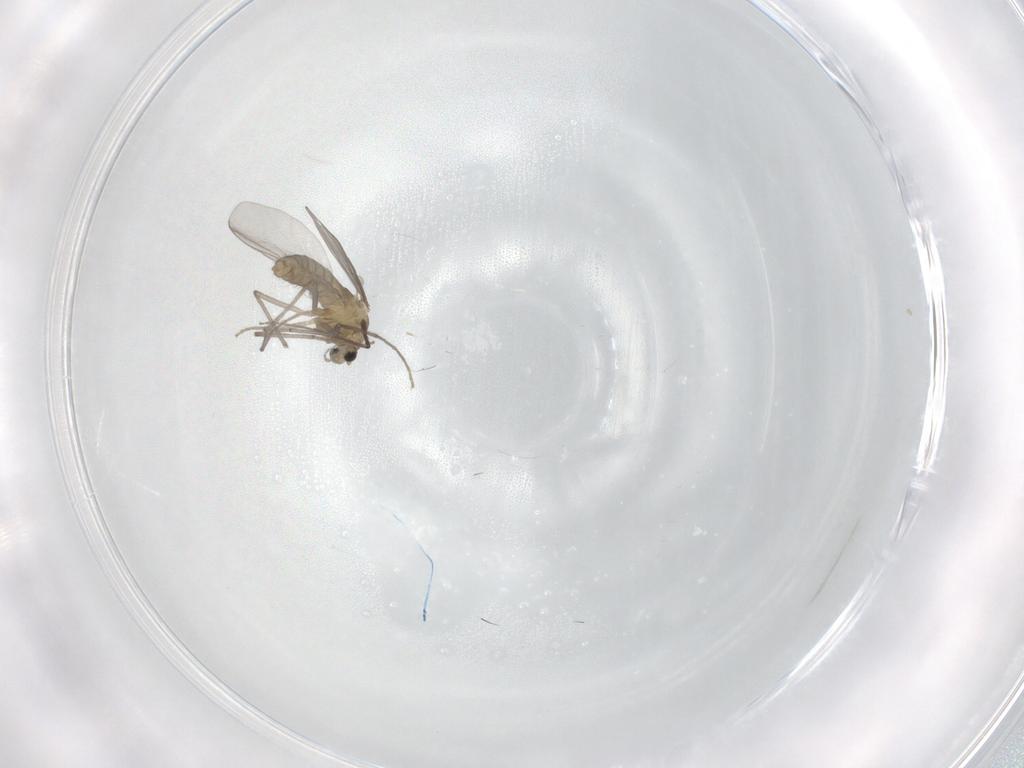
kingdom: Animalia
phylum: Arthropoda
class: Insecta
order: Diptera
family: Chironomidae
